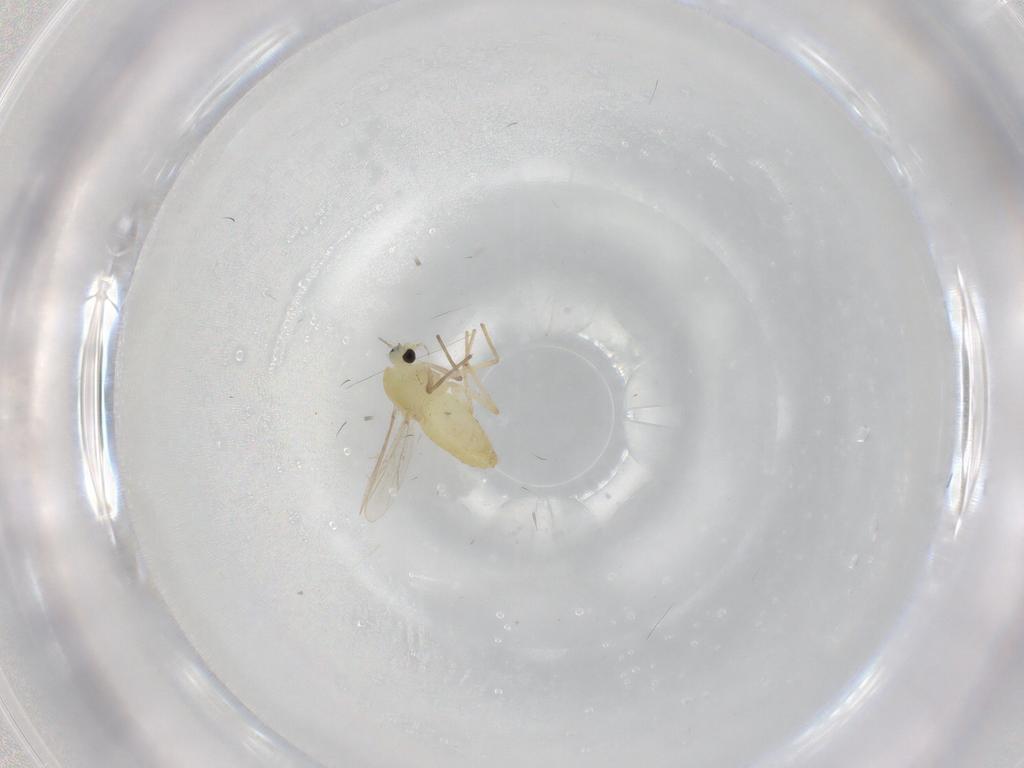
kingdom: Animalia
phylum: Arthropoda
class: Insecta
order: Diptera
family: Chironomidae
